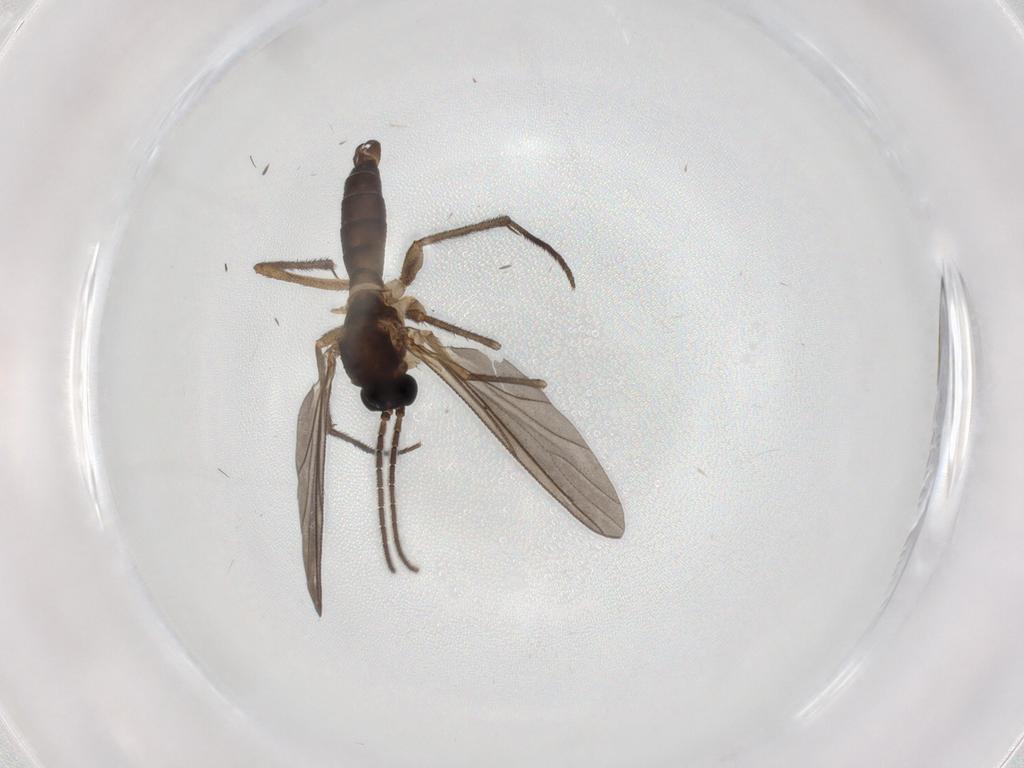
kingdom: Animalia
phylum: Arthropoda
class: Insecta
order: Diptera
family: Sciaridae
